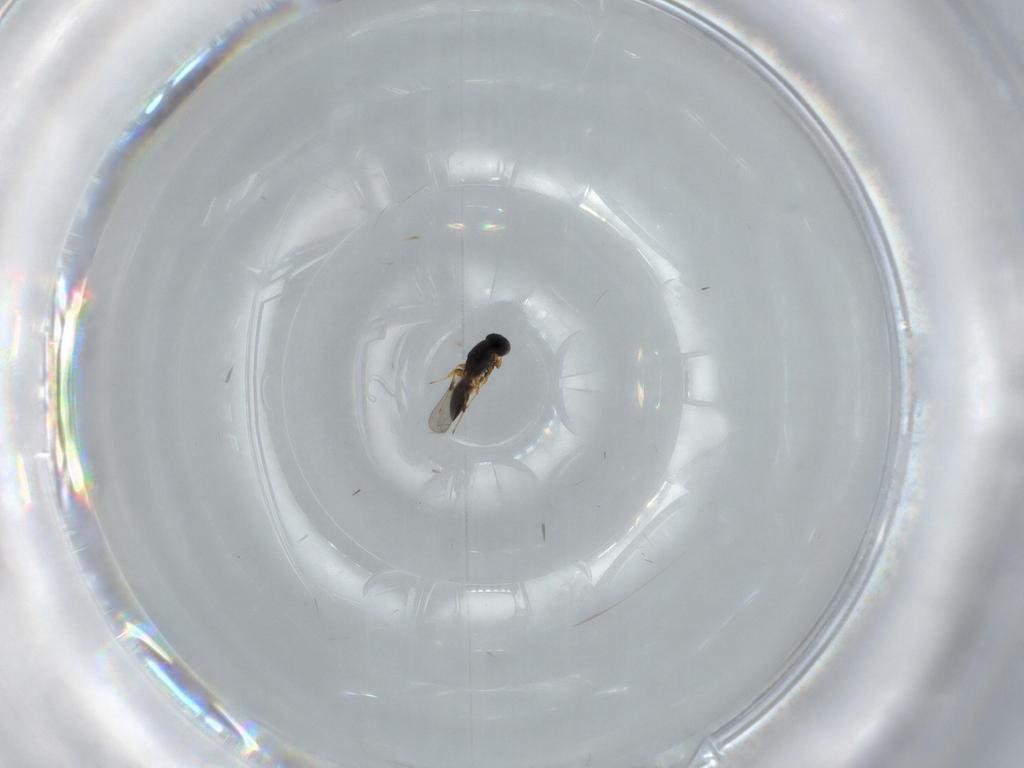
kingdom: Animalia
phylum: Arthropoda
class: Insecta
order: Hymenoptera
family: Platygastridae
